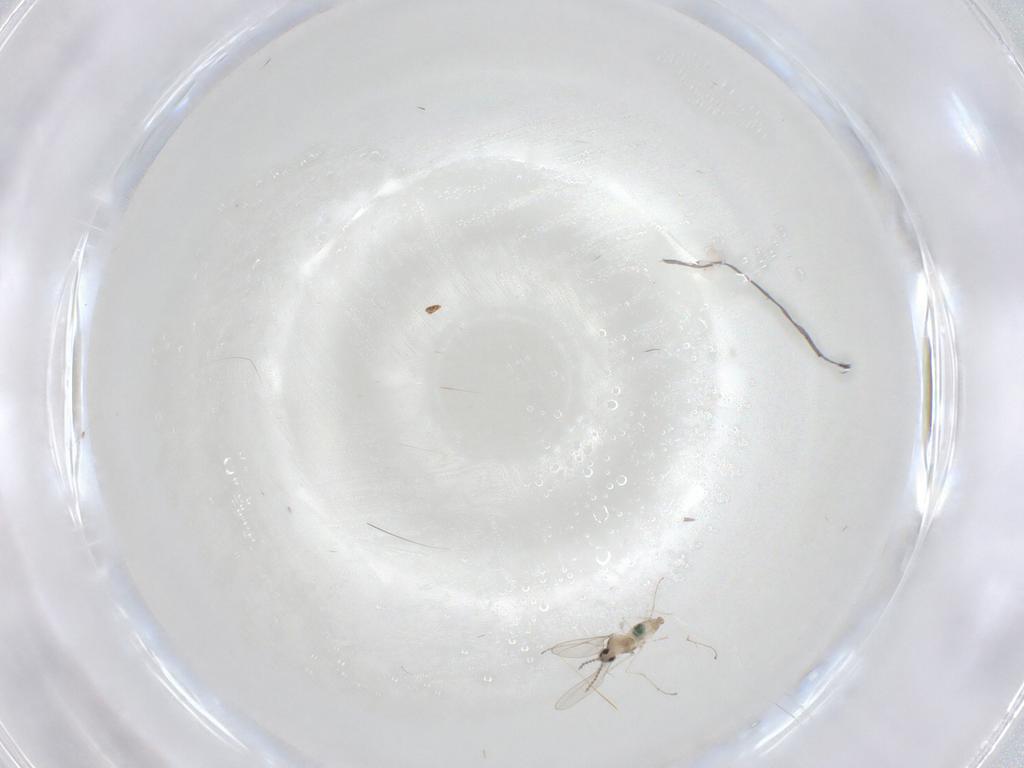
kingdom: Animalia
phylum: Arthropoda
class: Insecta
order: Diptera
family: Cecidomyiidae
